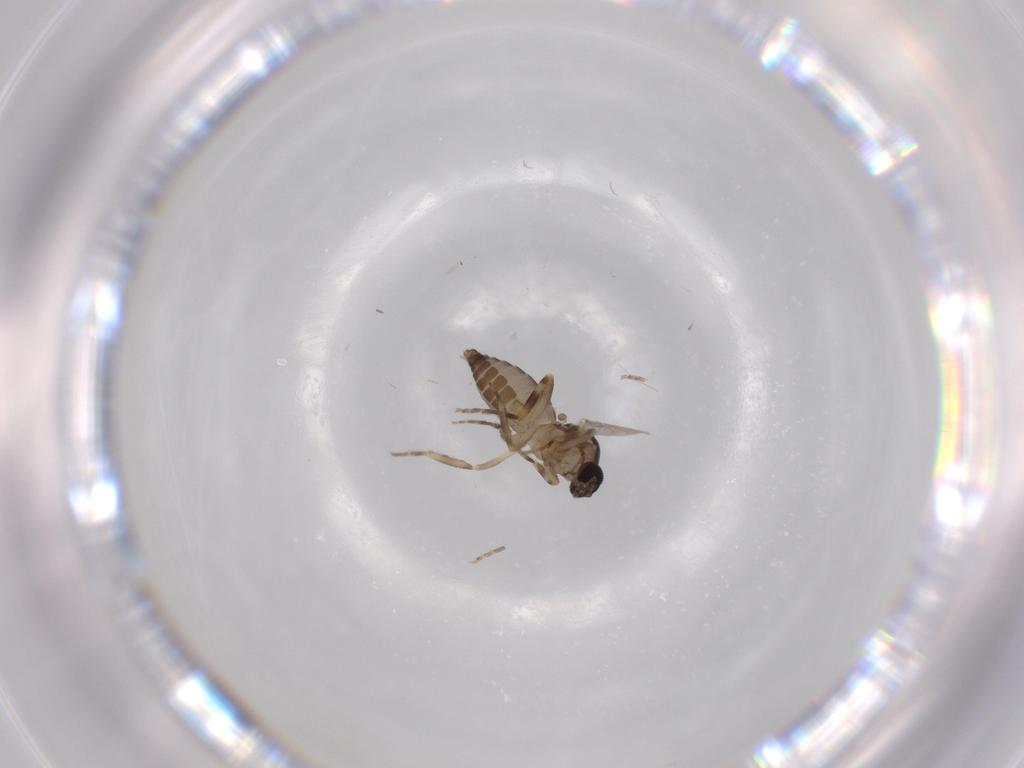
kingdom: Animalia
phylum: Arthropoda
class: Insecta
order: Diptera
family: Ceratopogonidae
